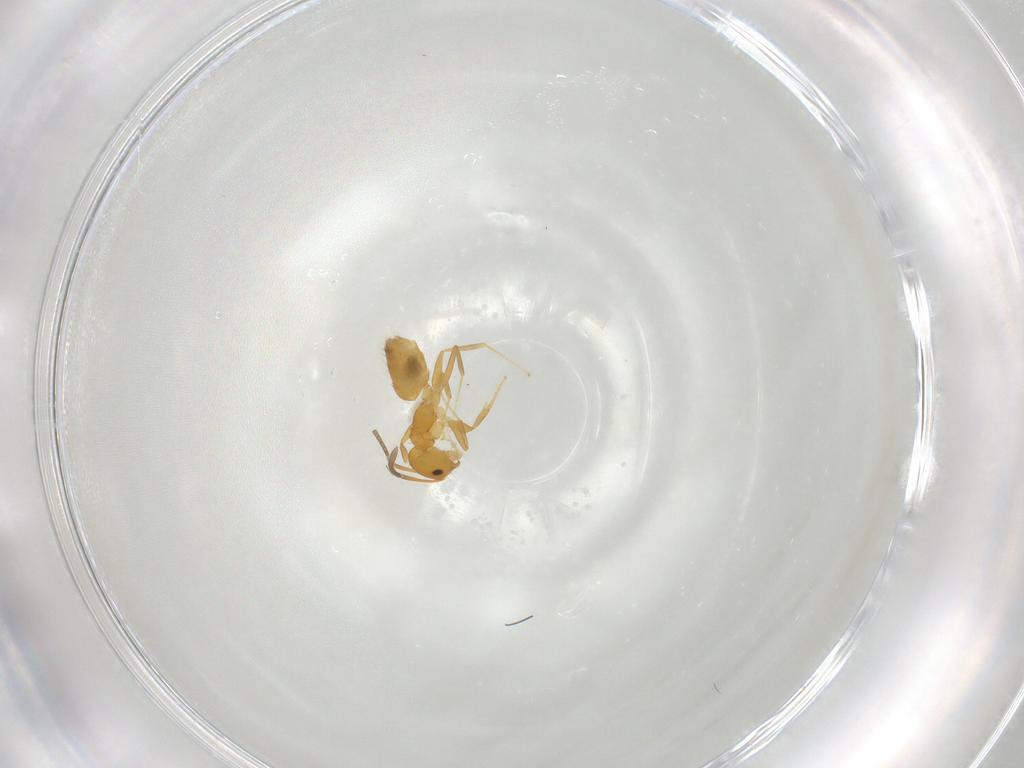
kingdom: Animalia
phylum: Arthropoda
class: Insecta
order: Hymenoptera
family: Formicidae
